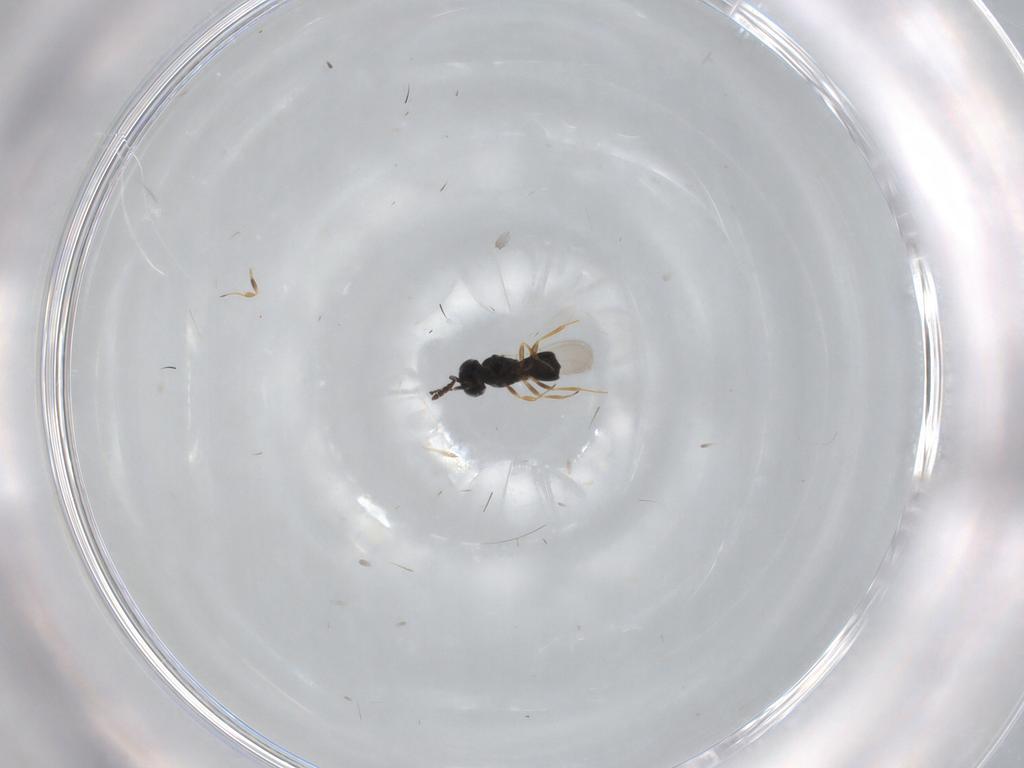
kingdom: Animalia
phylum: Arthropoda
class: Insecta
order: Hymenoptera
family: Scelionidae
